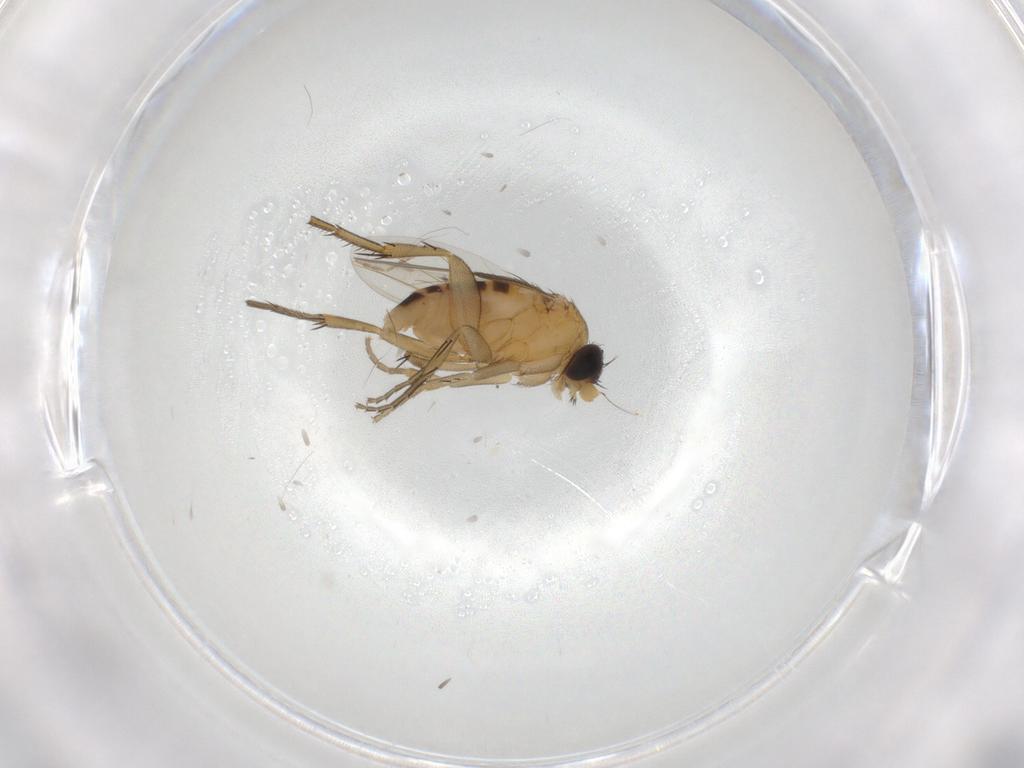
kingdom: Animalia
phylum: Arthropoda
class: Insecta
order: Diptera
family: Phoridae
